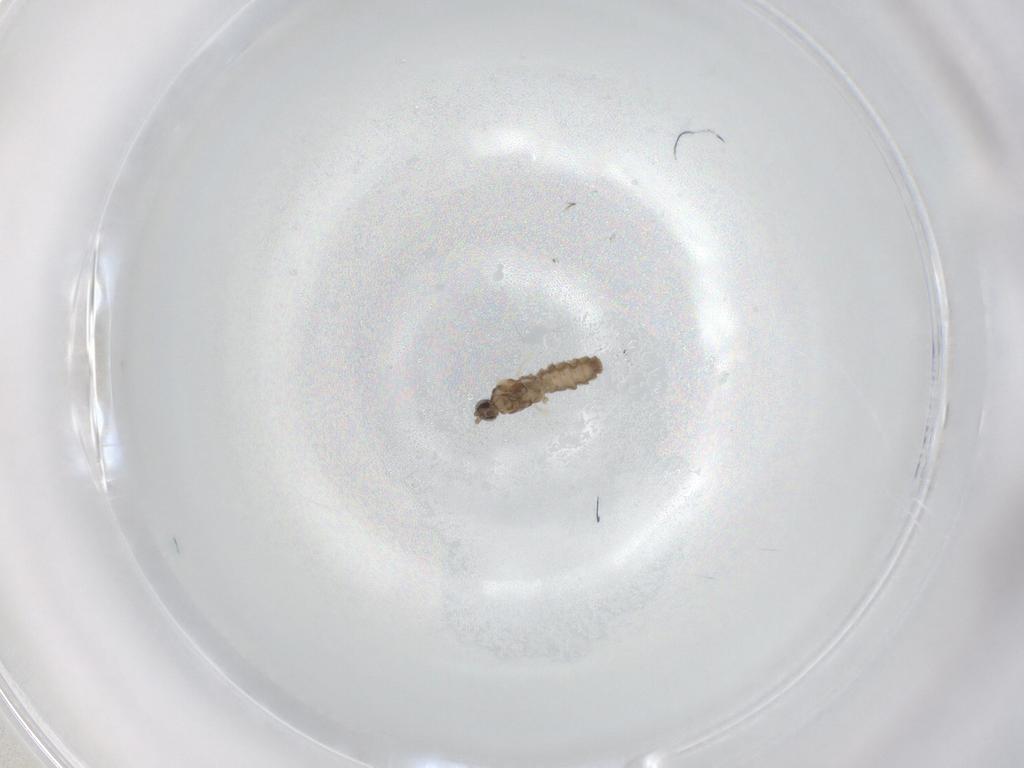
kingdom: Animalia
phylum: Arthropoda
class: Insecta
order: Diptera
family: Cecidomyiidae
